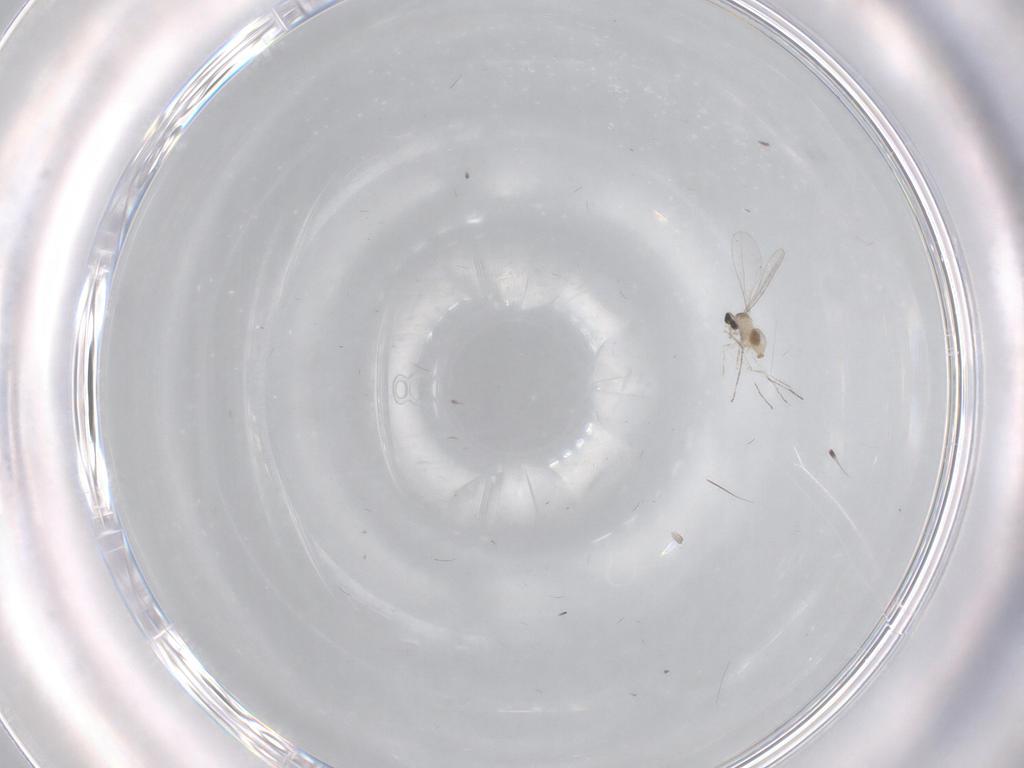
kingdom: Animalia
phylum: Arthropoda
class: Insecta
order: Diptera
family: Cecidomyiidae
